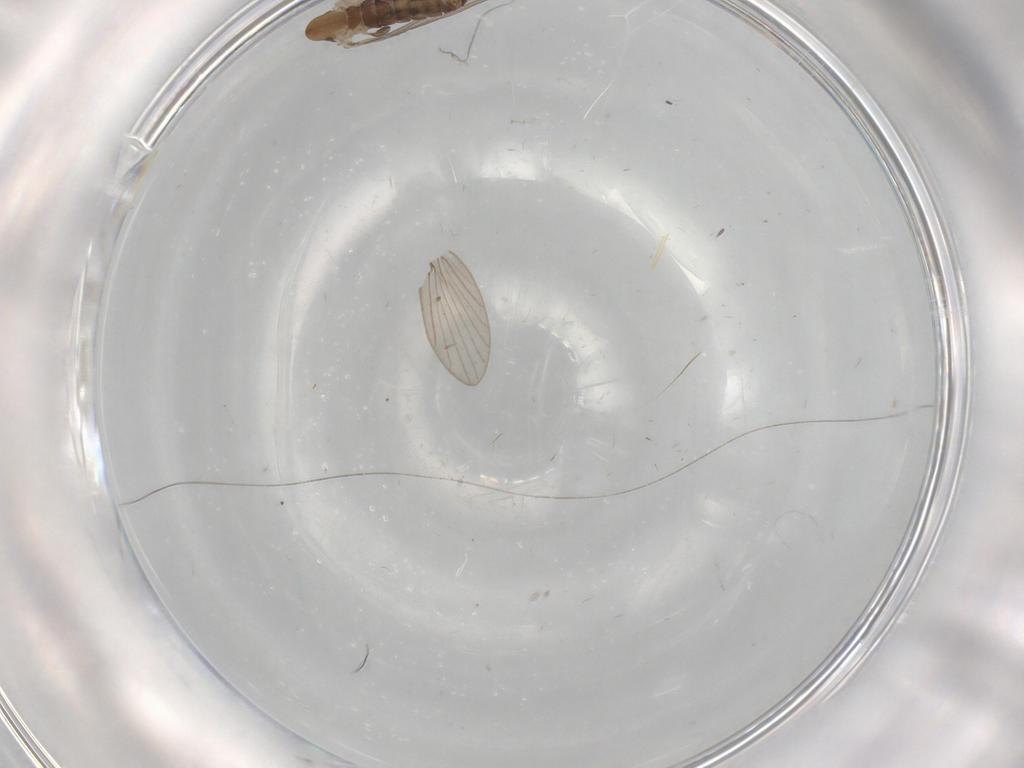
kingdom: Animalia
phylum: Arthropoda
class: Insecta
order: Diptera
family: Psychodidae
